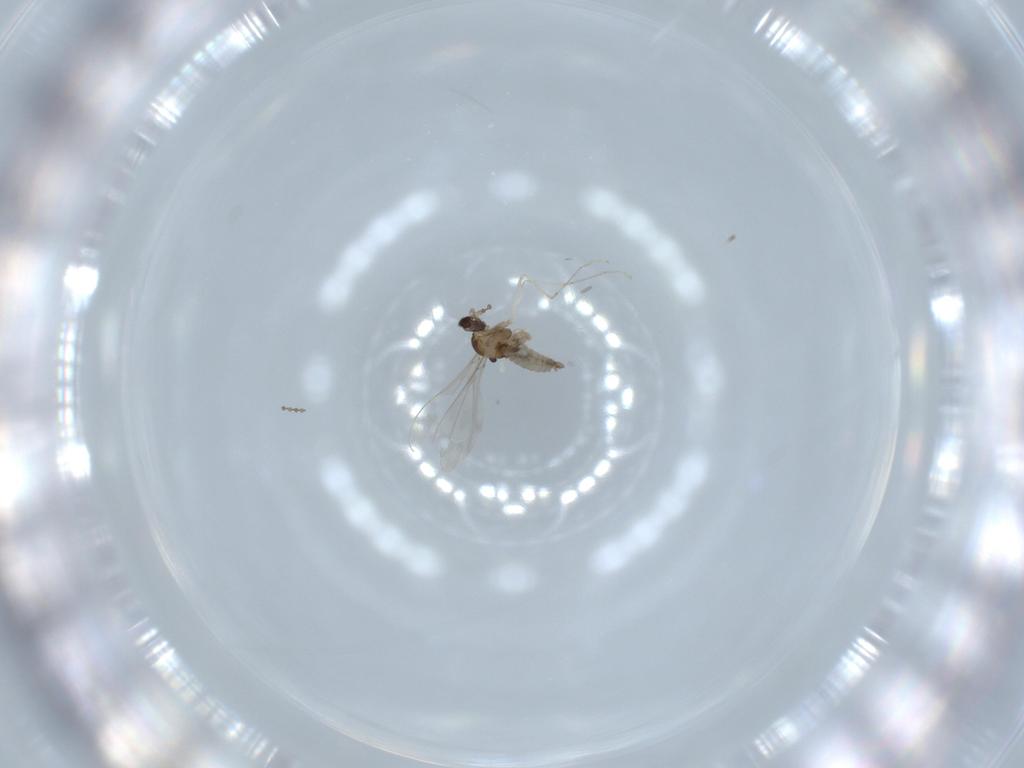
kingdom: Animalia
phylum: Arthropoda
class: Insecta
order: Diptera
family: Cecidomyiidae
